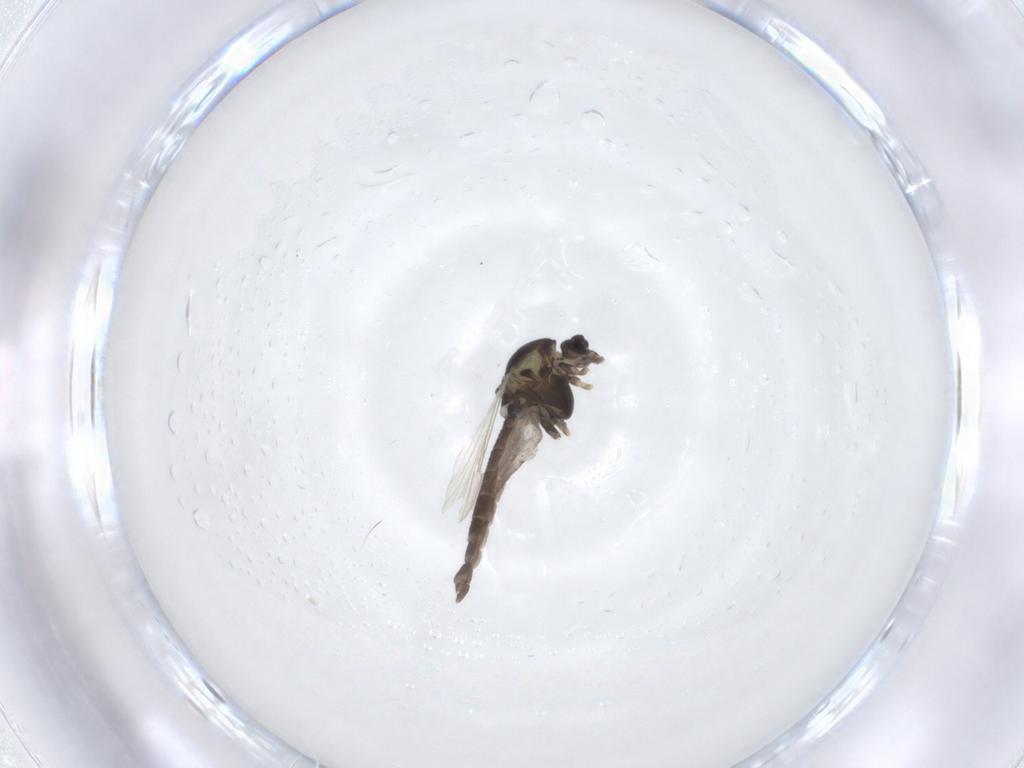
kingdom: Animalia
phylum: Arthropoda
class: Insecta
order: Diptera
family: Chironomidae
